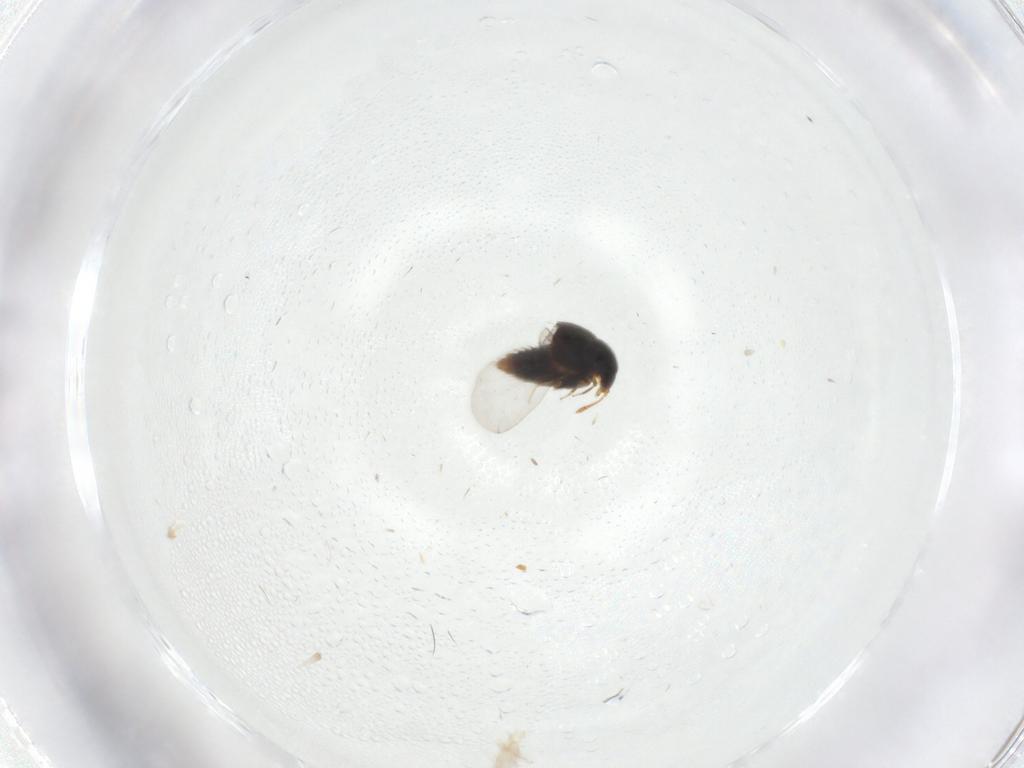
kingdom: Animalia
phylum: Arthropoda
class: Insecta
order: Coleoptera
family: Staphylinidae
